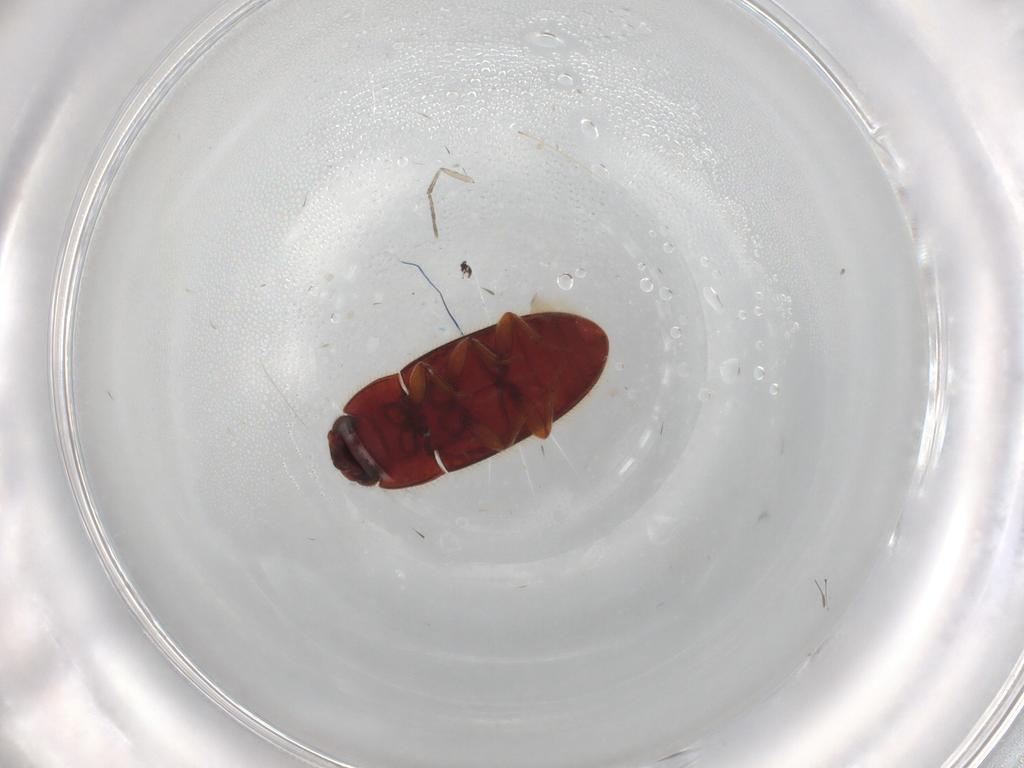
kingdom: Animalia
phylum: Arthropoda
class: Insecta
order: Coleoptera
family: Biphyllidae
